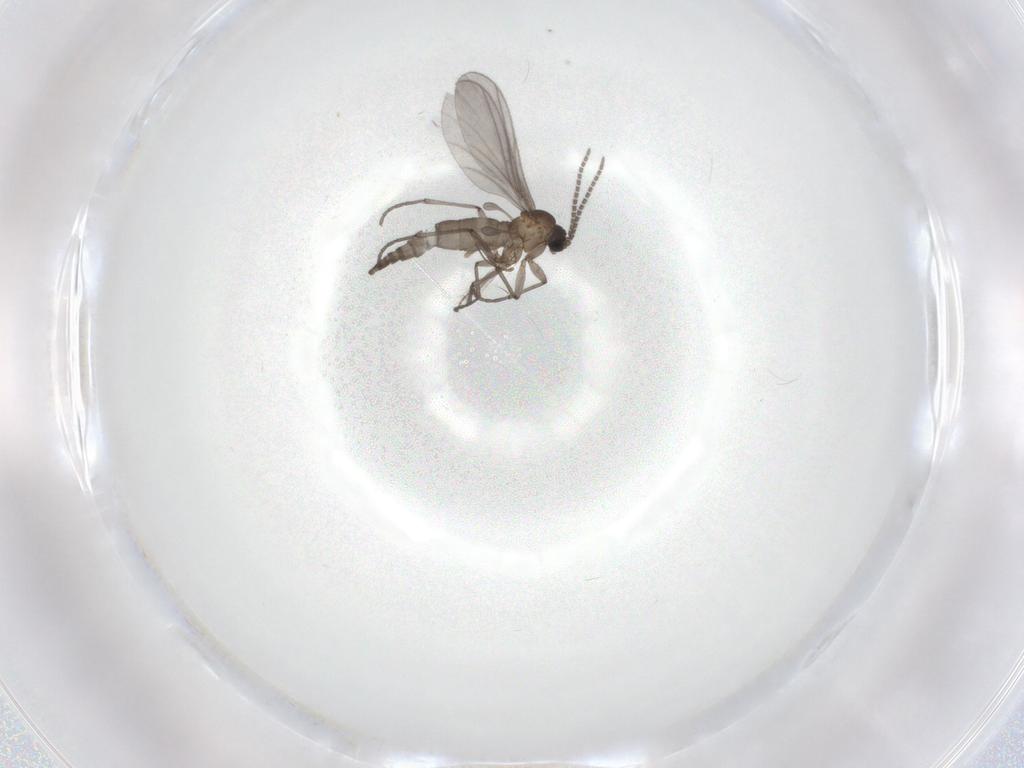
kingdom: Animalia
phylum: Arthropoda
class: Insecta
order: Diptera
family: Sciaridae
